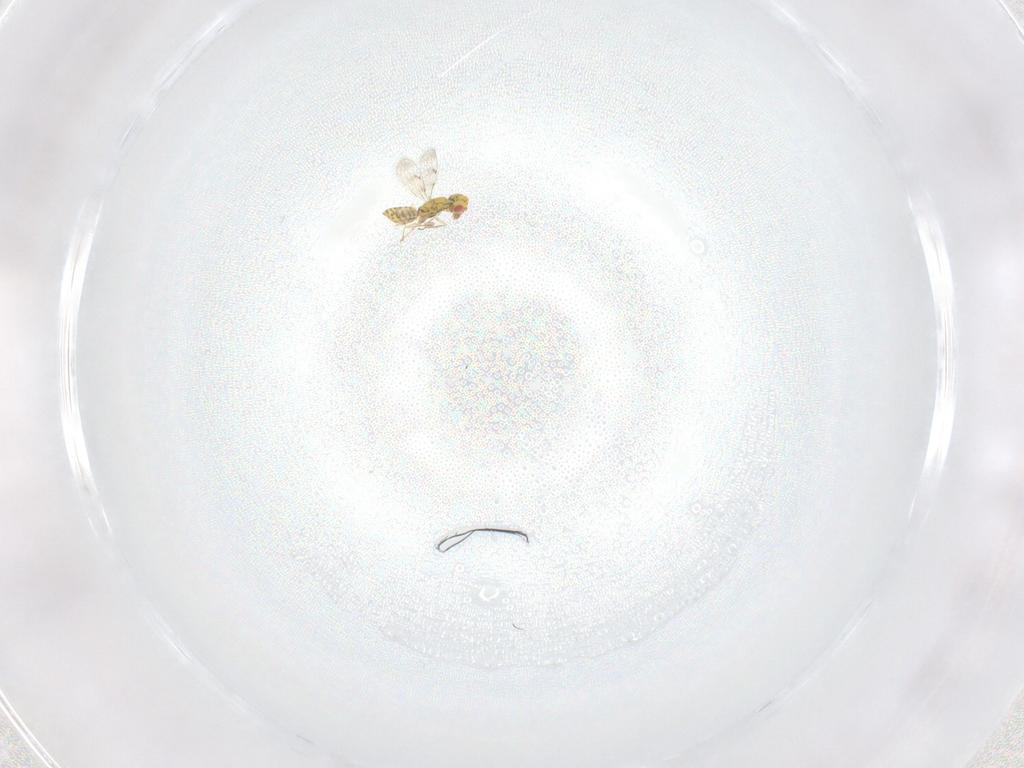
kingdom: Animalia
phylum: Arthropoda
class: Insecta
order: Hymenoptera
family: Eulophidae
